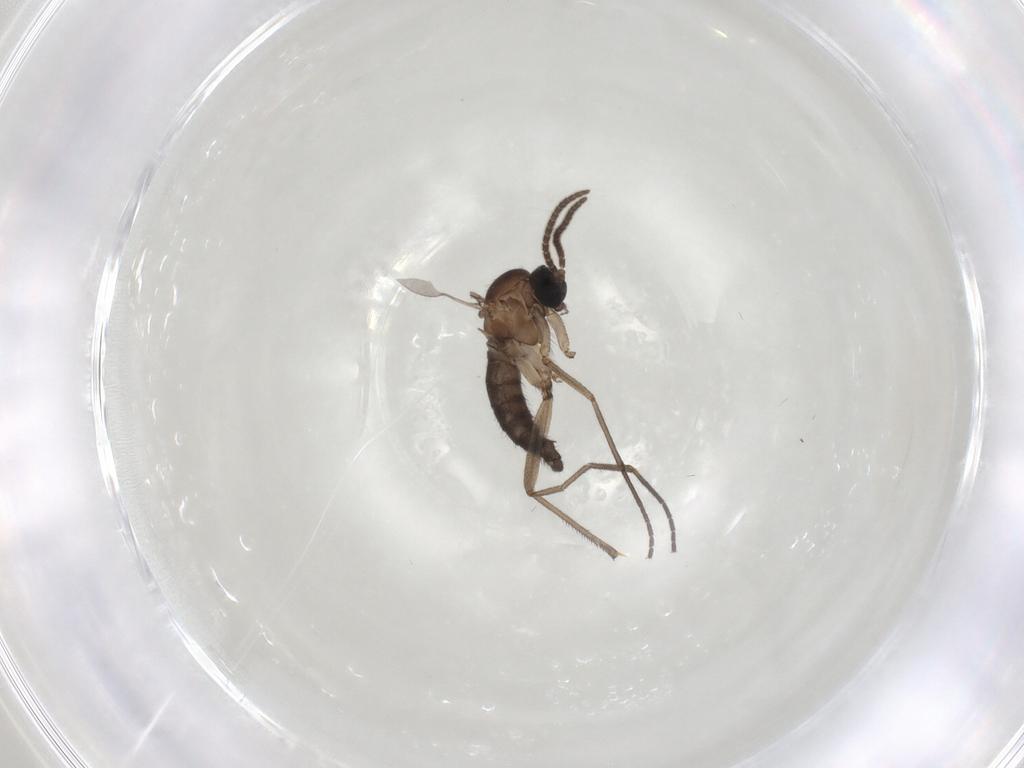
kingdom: Animalia
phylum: Arthropoda
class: Insecta
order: Diptera
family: Sciaridae
